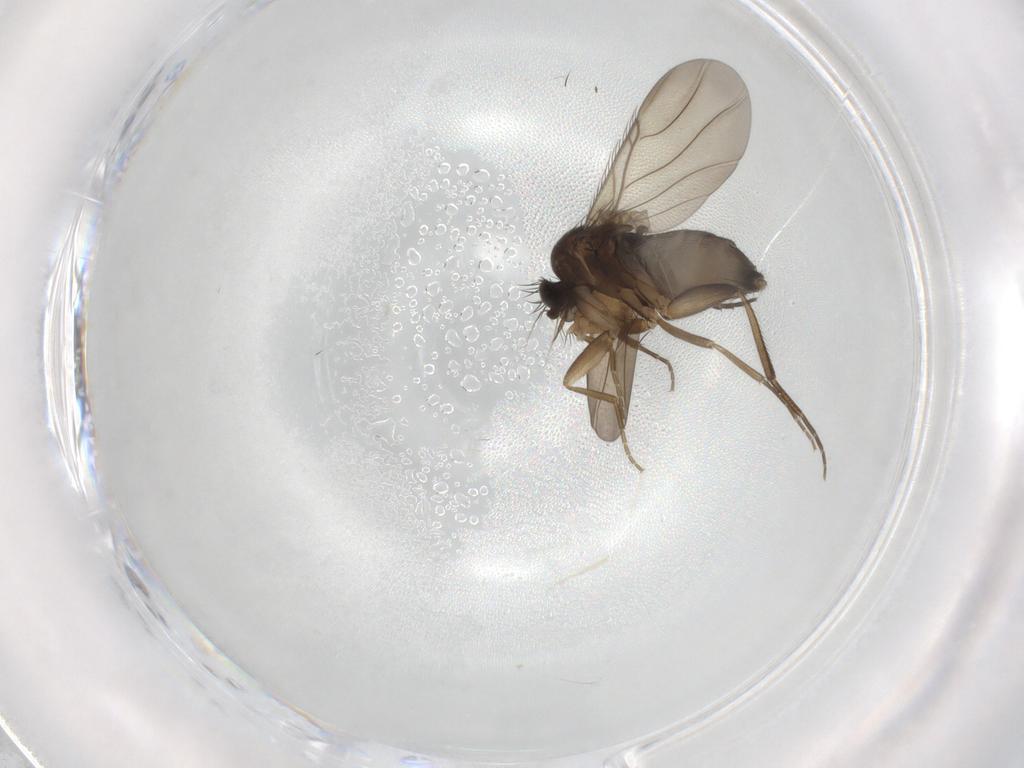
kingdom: Animalia
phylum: Arthropoda
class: Insecta
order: Diptera
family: Phoridae
